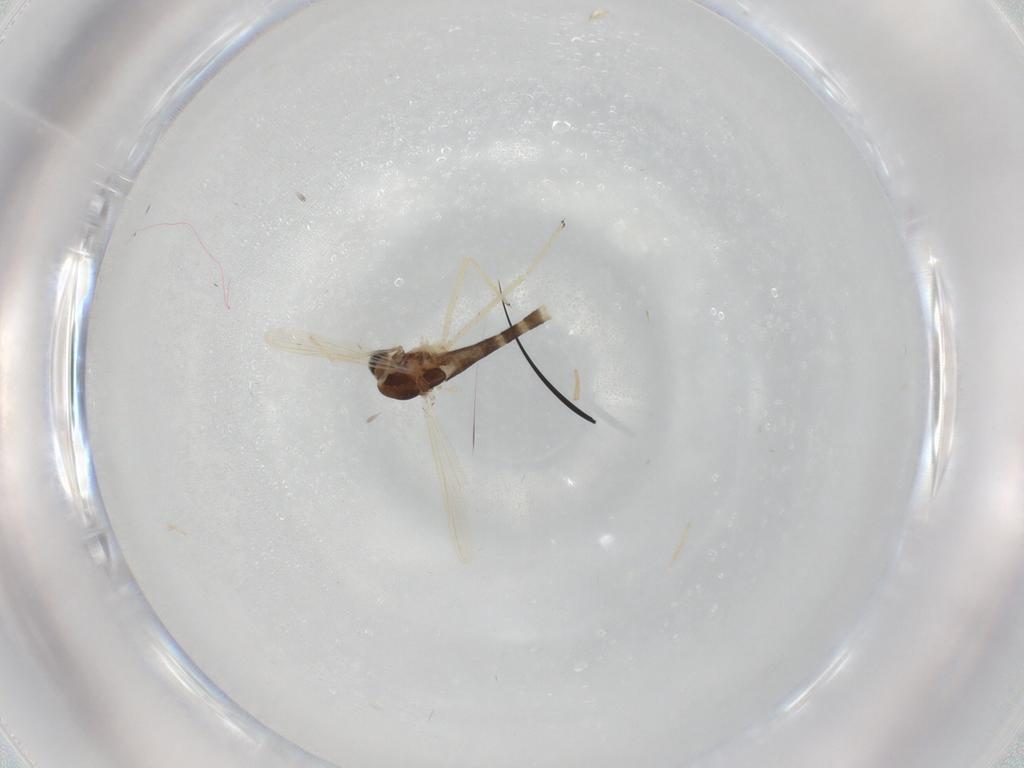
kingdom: Animalia
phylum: Arthropoda
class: Insecta
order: Diptera
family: Chironomidae
